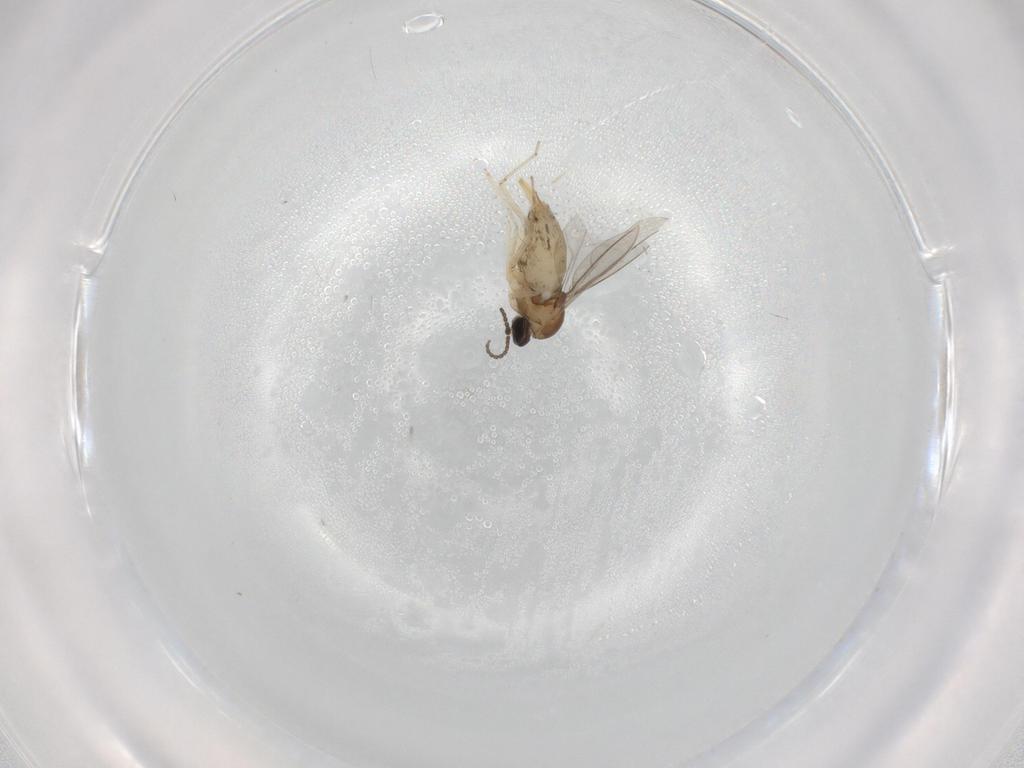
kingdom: Animalia
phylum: Arthropoda
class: Insecta
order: Diptera
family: Cecidomyiidae
